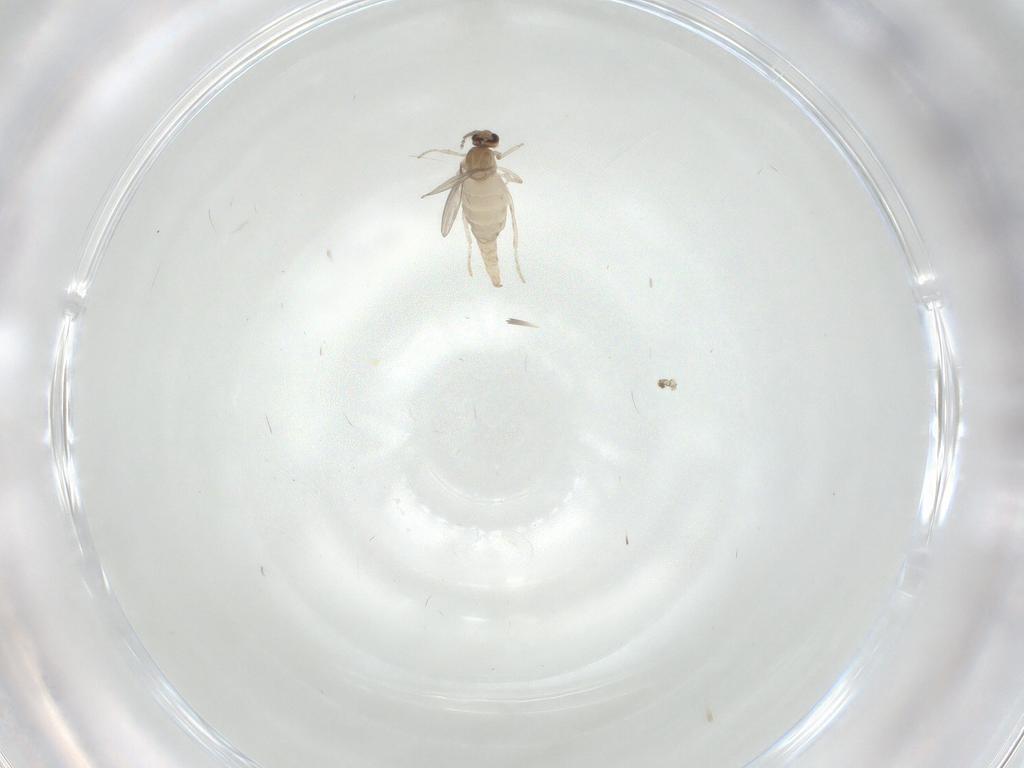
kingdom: Animalia
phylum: Arthropoda
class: Insecta
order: Diptera
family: Cecidomyiidae
